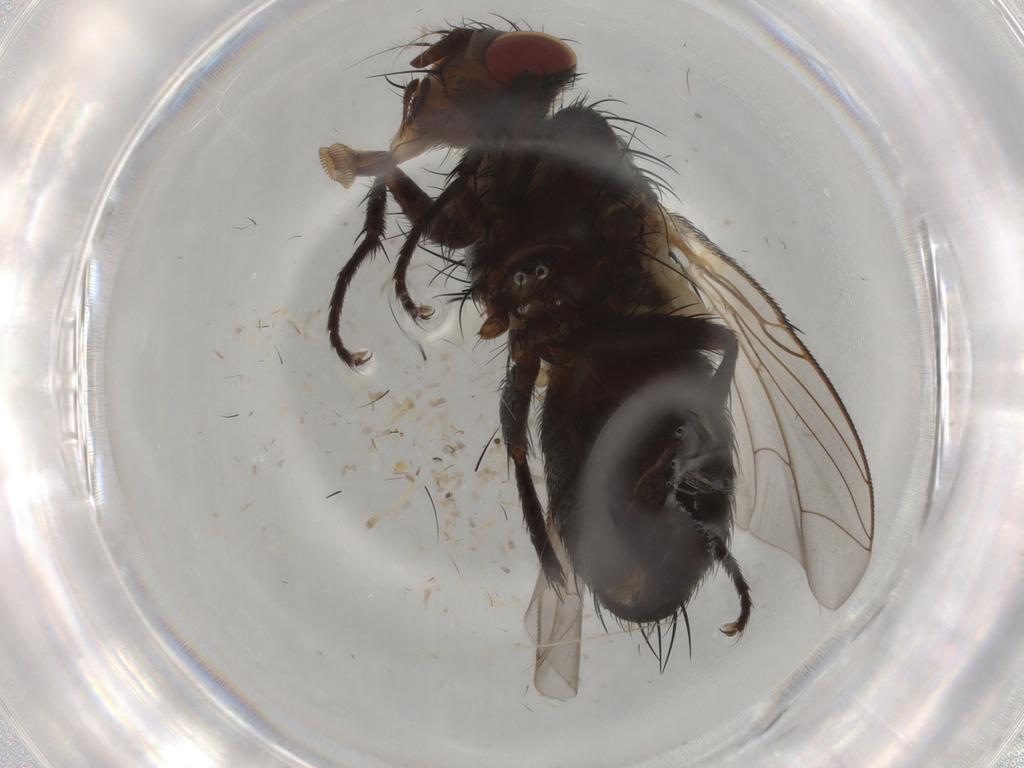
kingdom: Animalia
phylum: Arthropoda
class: Insecta
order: Diptera
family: Sarcophagidae
